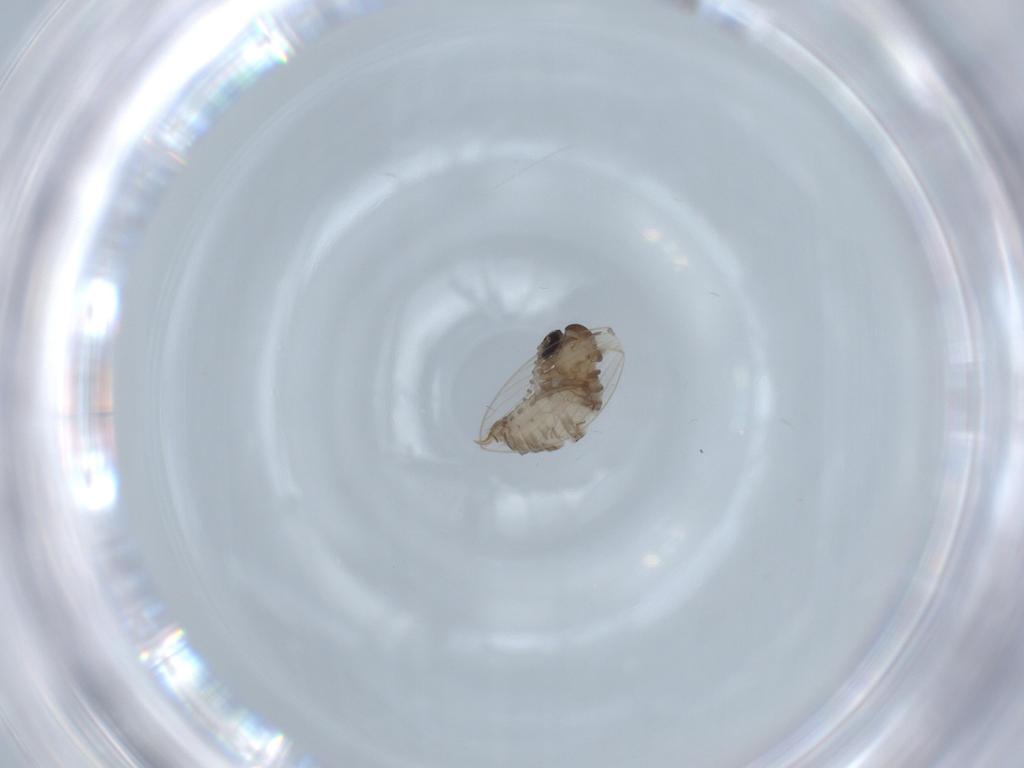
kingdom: Animalia
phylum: Arthropoda
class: Insecta
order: Diptera
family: Psychodidae
